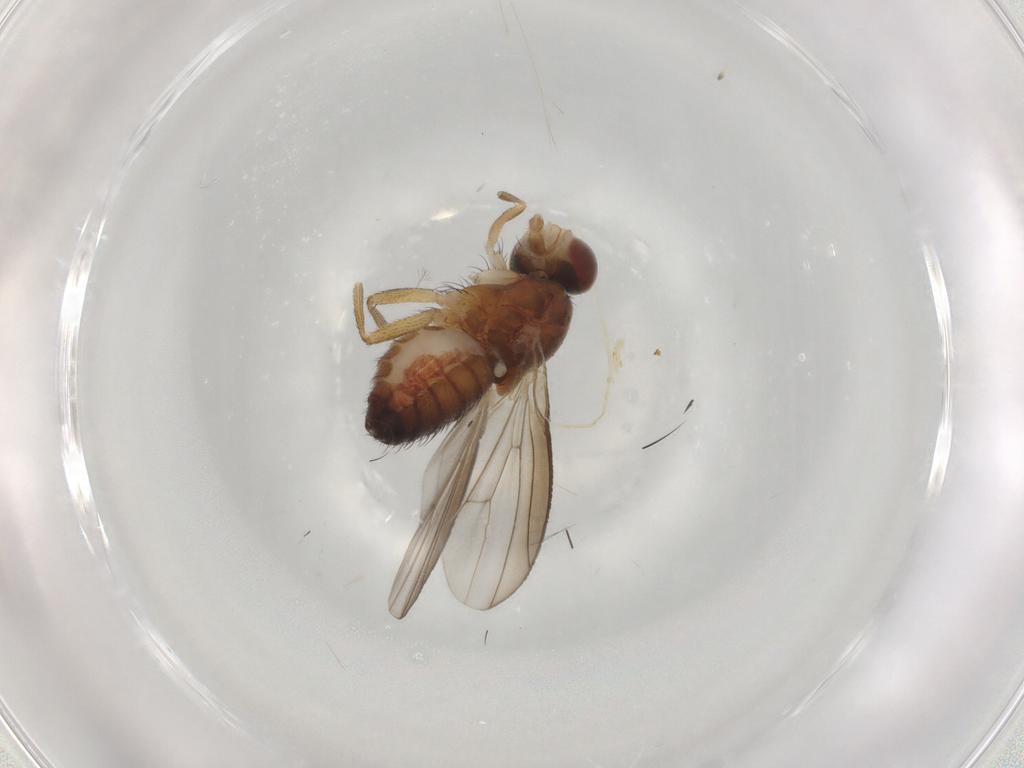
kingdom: Animalia
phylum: Arthropoda
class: Insecta
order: Diptera
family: Heleomyzidae
